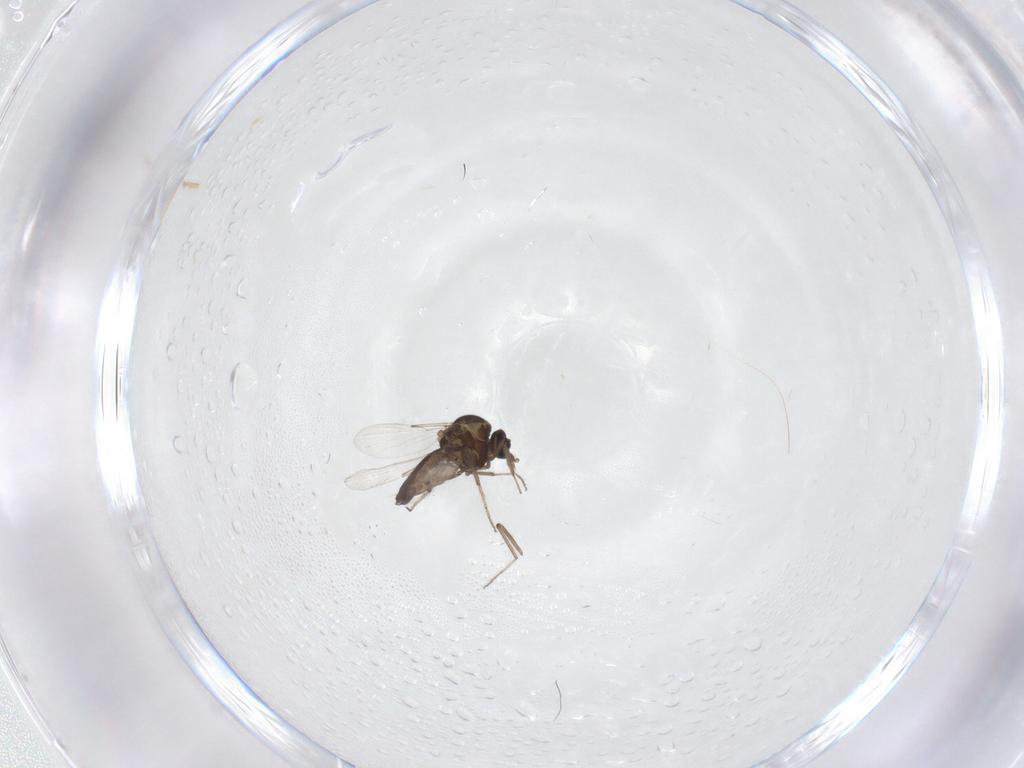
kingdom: Animalia
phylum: Arthropoda
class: Insecta
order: Diptera
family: Ceratopogonidae
